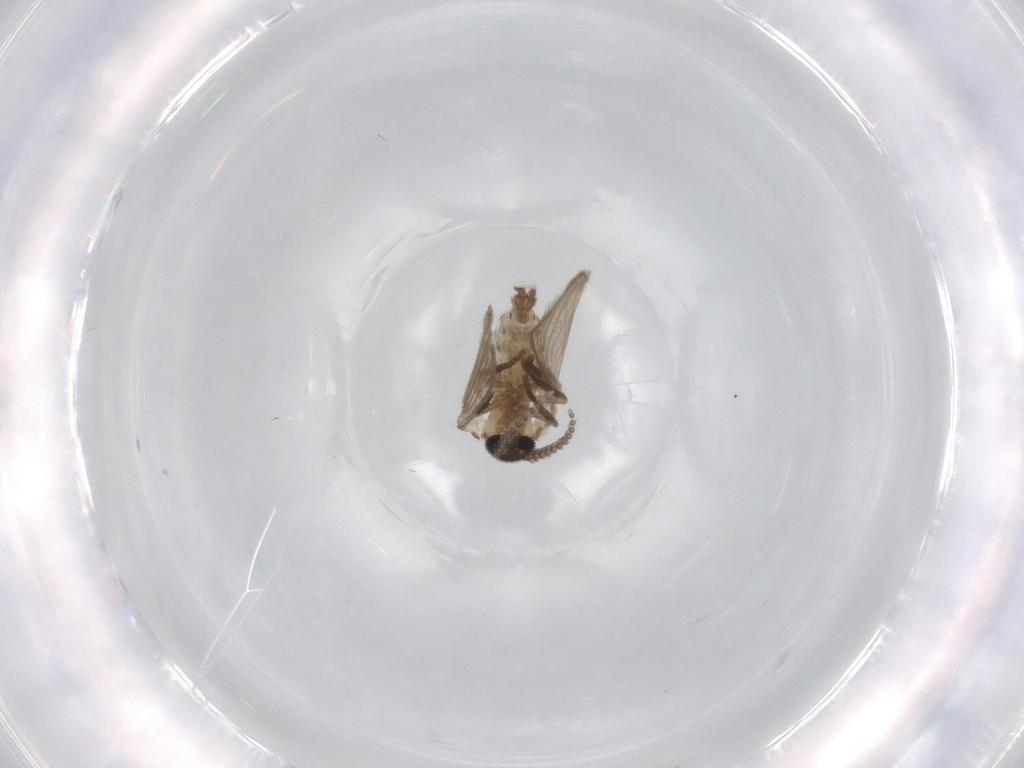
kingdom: Animalia
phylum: Arthropoda
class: Insecta
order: Diptera
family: Psychodidae
